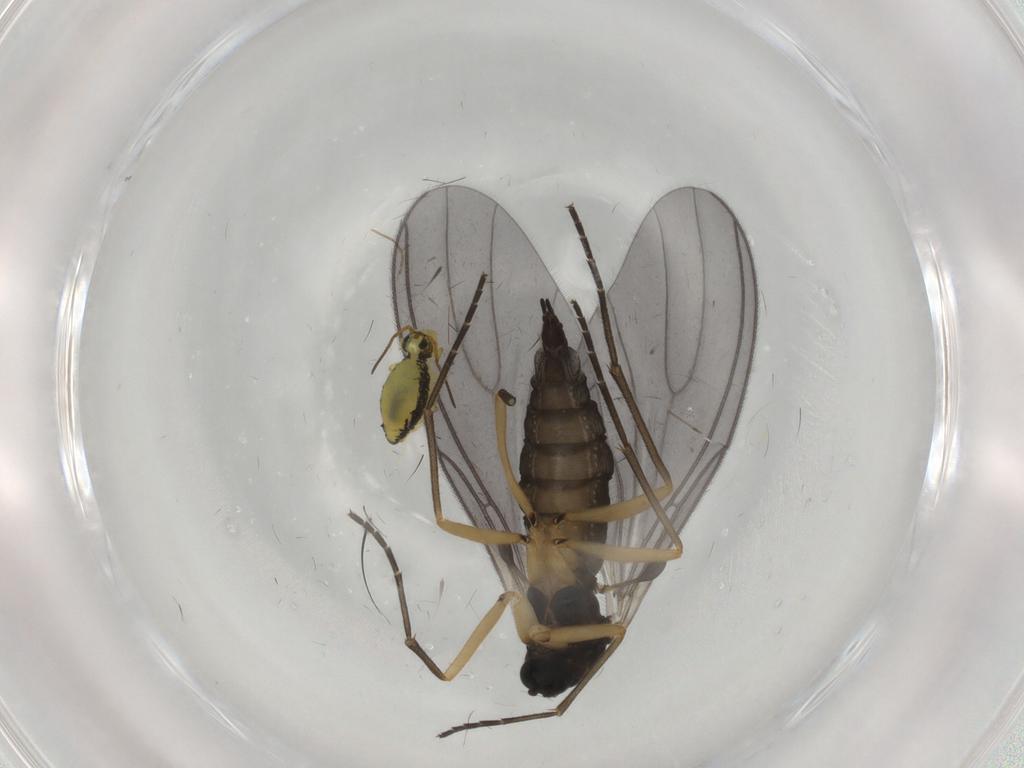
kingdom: Animalia
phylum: Arthropoda
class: Insecta
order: Diptera
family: Sciaridae
